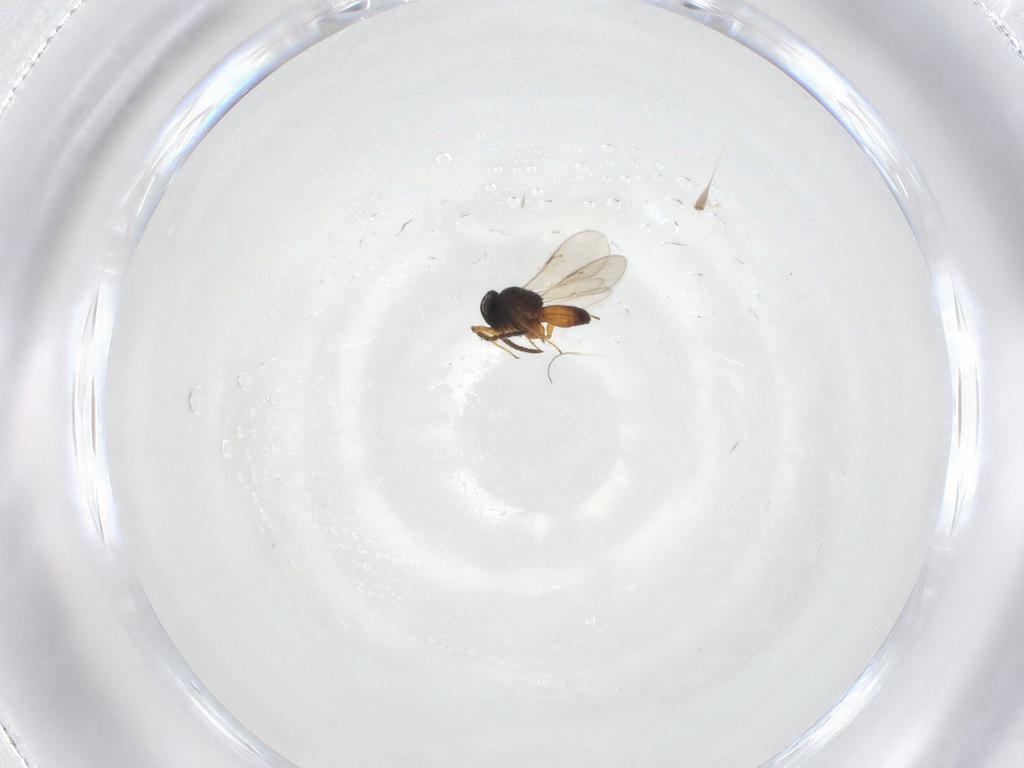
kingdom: Animalia
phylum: Arthropoda
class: Insecta
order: Hymenoptera
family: Scelionidae
